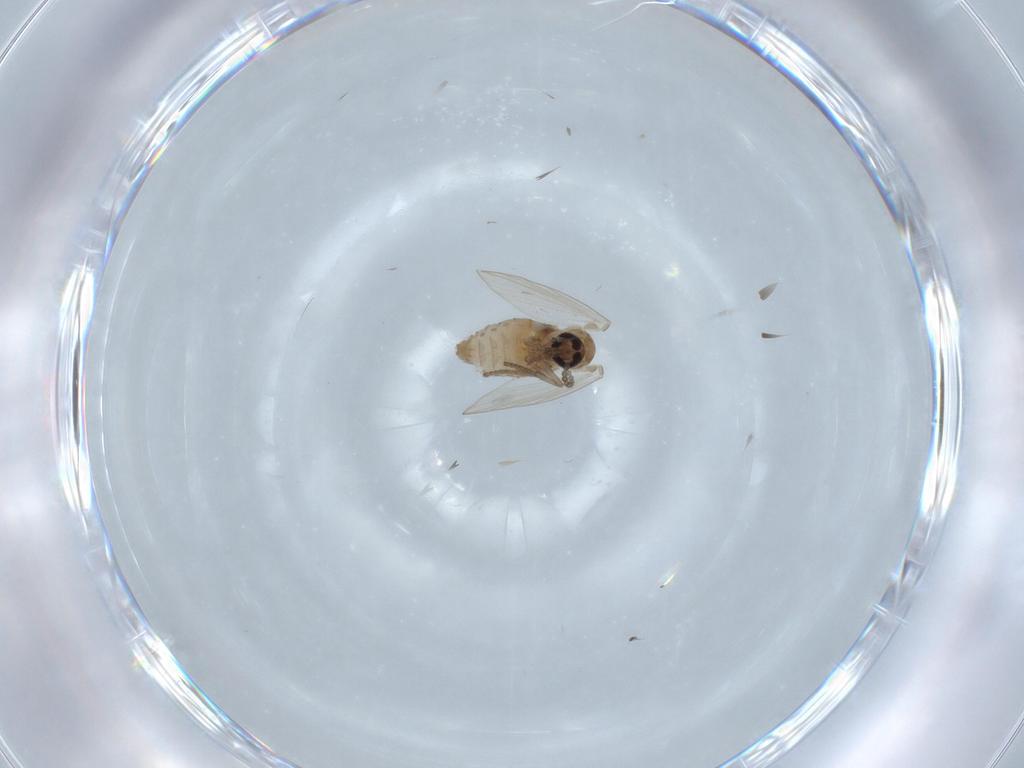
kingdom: Animalia
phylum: Arthropoda
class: Insecta
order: Diptera
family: Psychodidae
